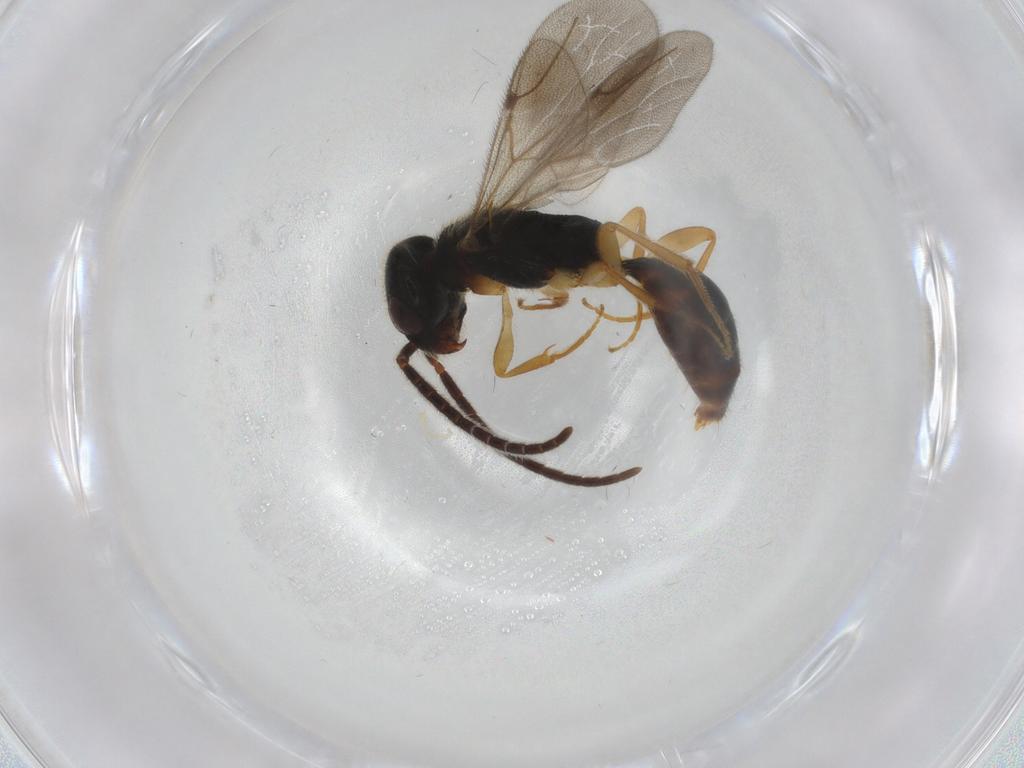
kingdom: Animalia
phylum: Arthropoda
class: Insecta
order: Hymenoptera
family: Bethylidae
